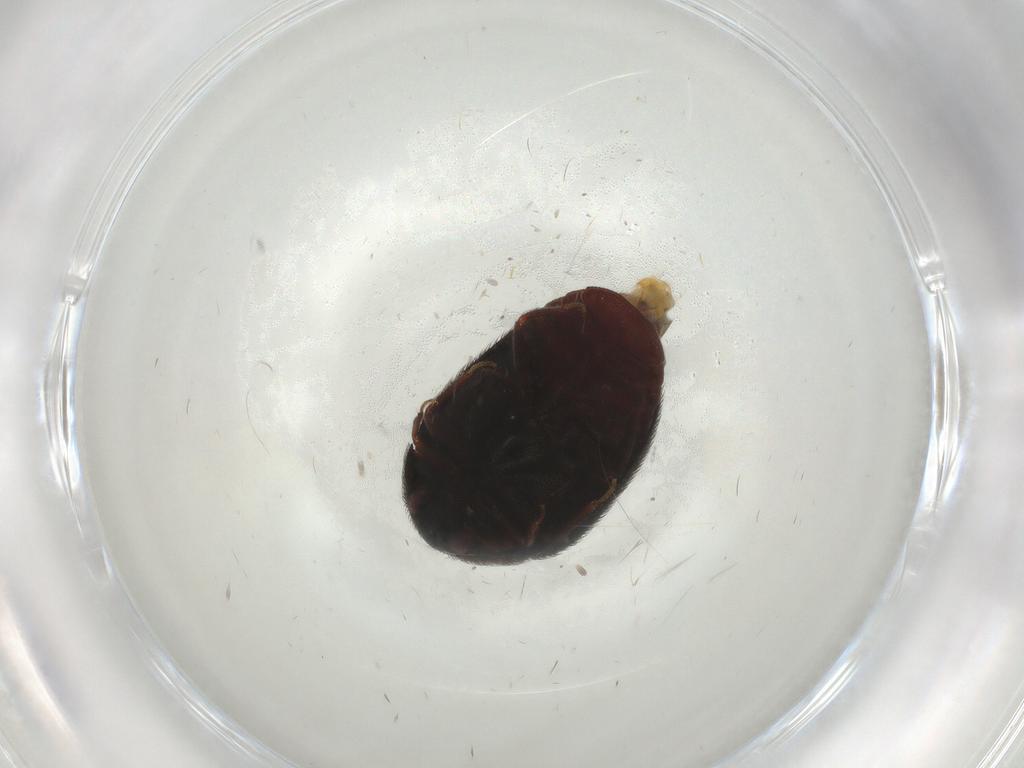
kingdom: Animalia
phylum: Arthropoda
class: Insecta
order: Coleoptera
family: Dermestidae
